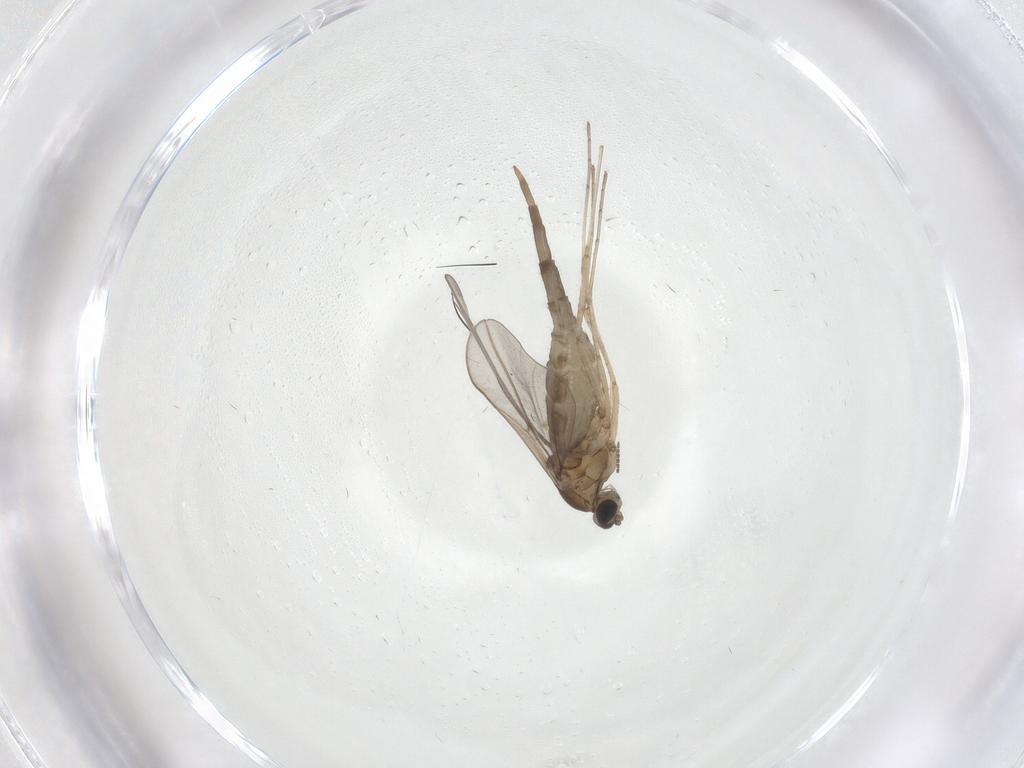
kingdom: Animalia
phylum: Arthropoda
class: Insecta
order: Diptera
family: Cecidomyiidae
